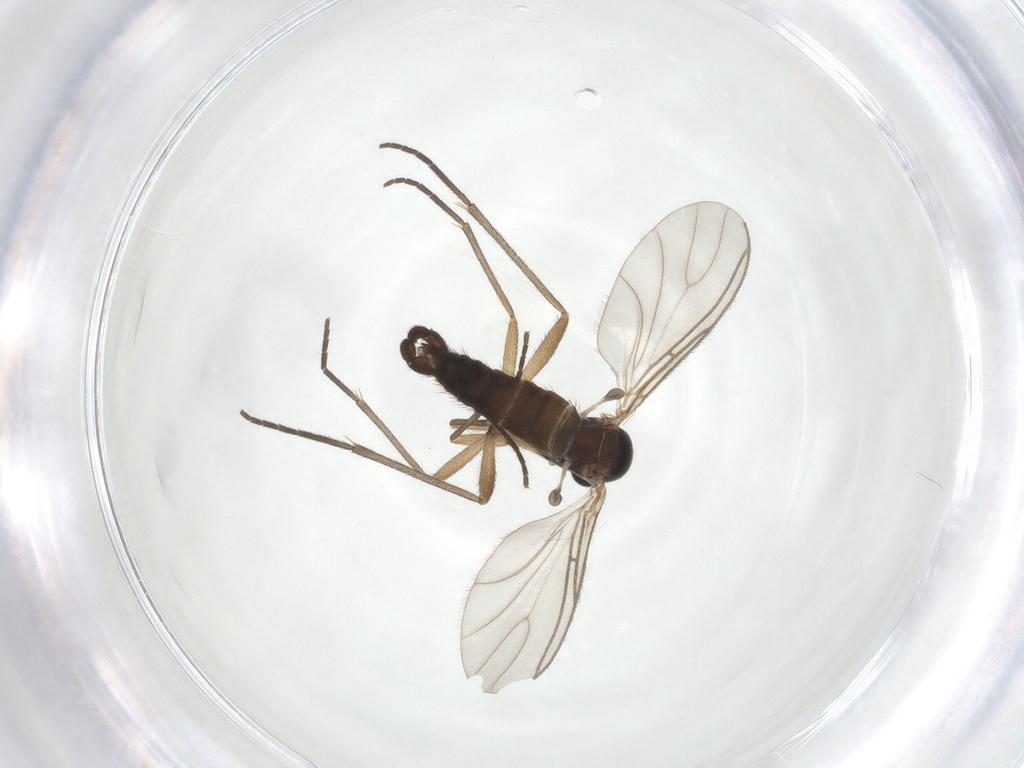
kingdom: Animalia
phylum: Arthropoda
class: Insecta
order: Diptera
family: Sciaridae
